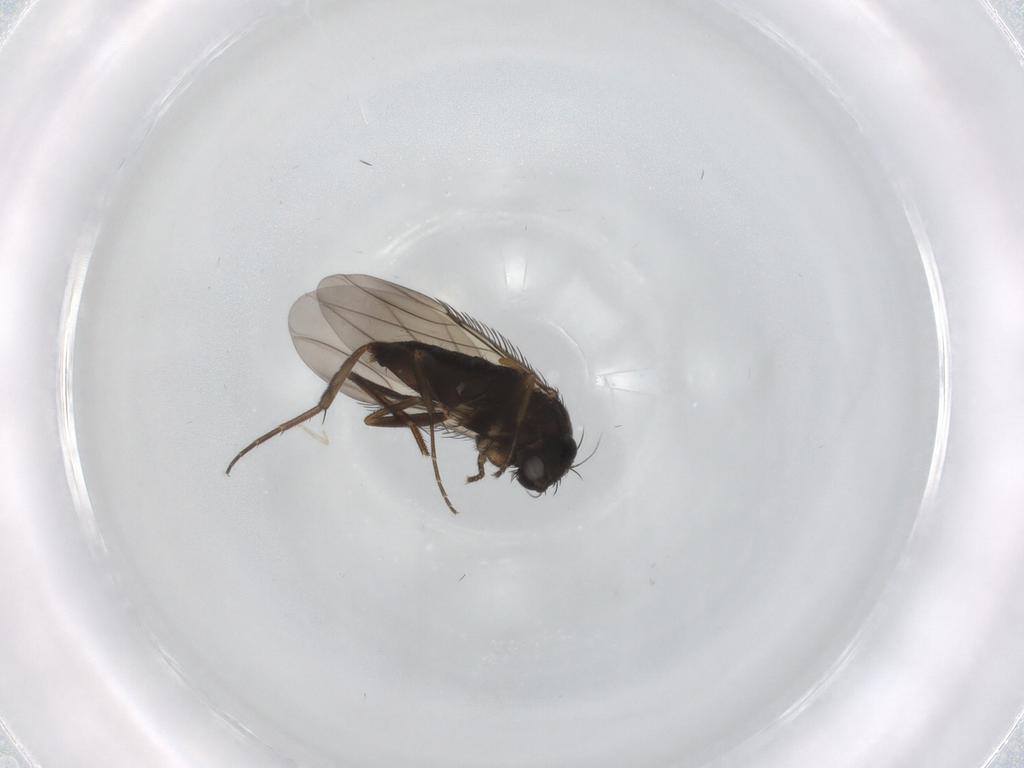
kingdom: Animalia
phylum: Arthropoda
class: Insecta
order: Diptera
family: Phoridae
